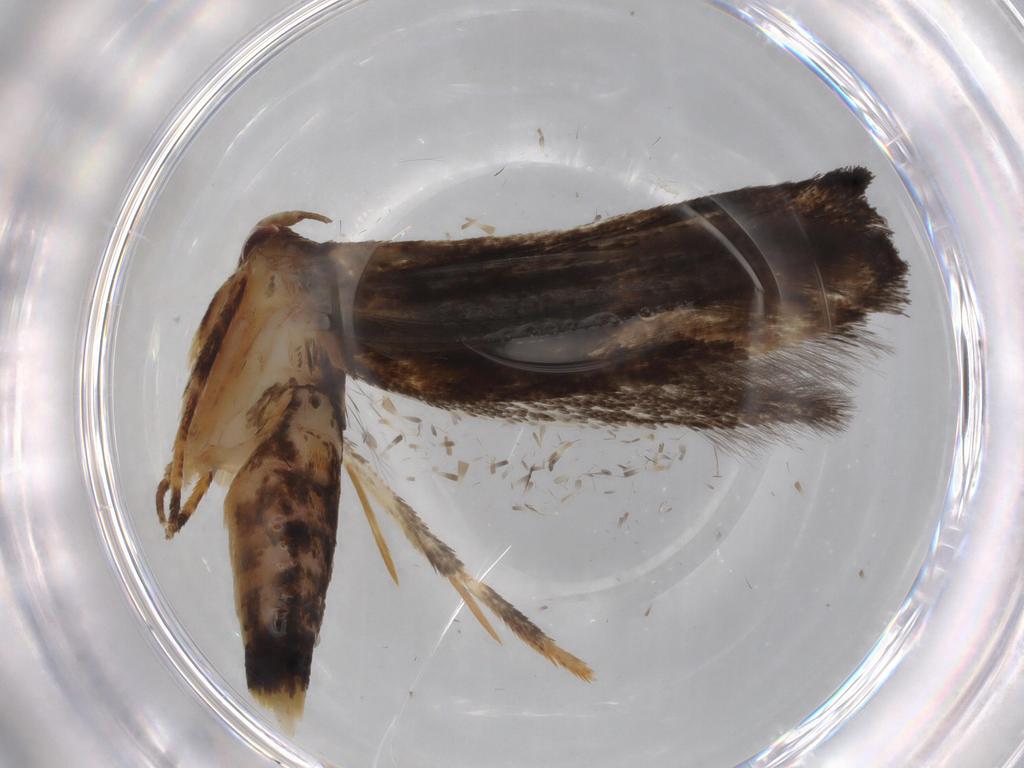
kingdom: Animalia
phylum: Arthropoda
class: Insecta
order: Lepidoptera
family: Momphidae
